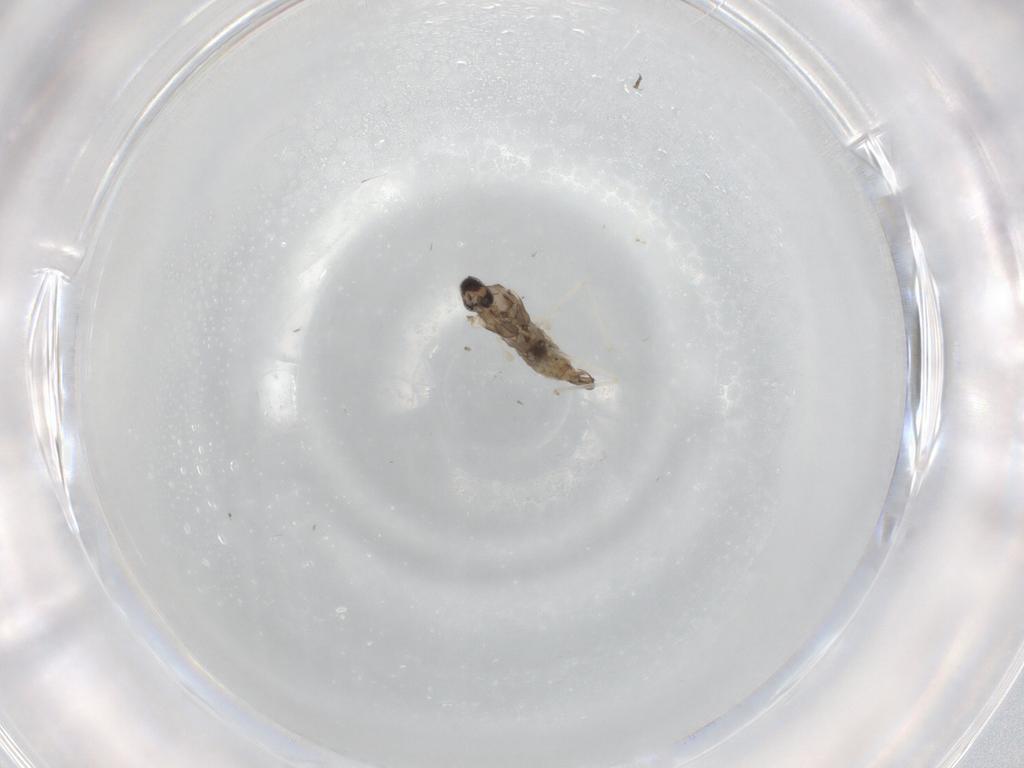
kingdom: Animalia
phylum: Arthropoda
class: Insecta
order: Diptera
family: Cecidomyiidae
